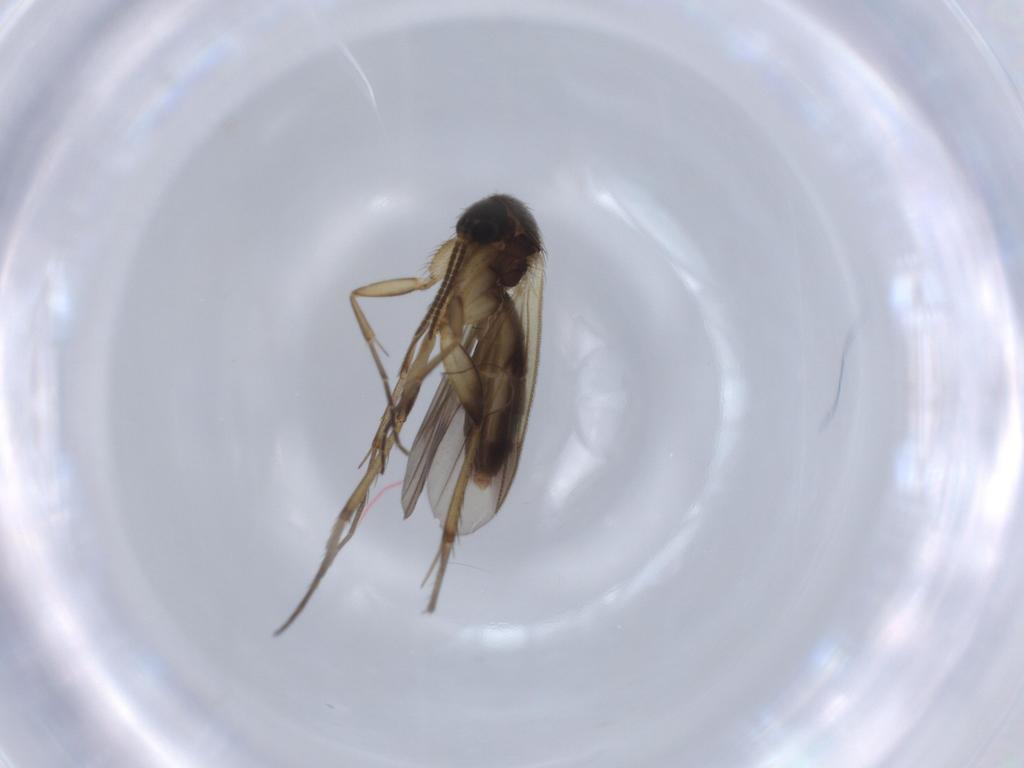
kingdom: Animalia
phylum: Arthropoda
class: Insecta
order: Diptera
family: Mycetophilidae
